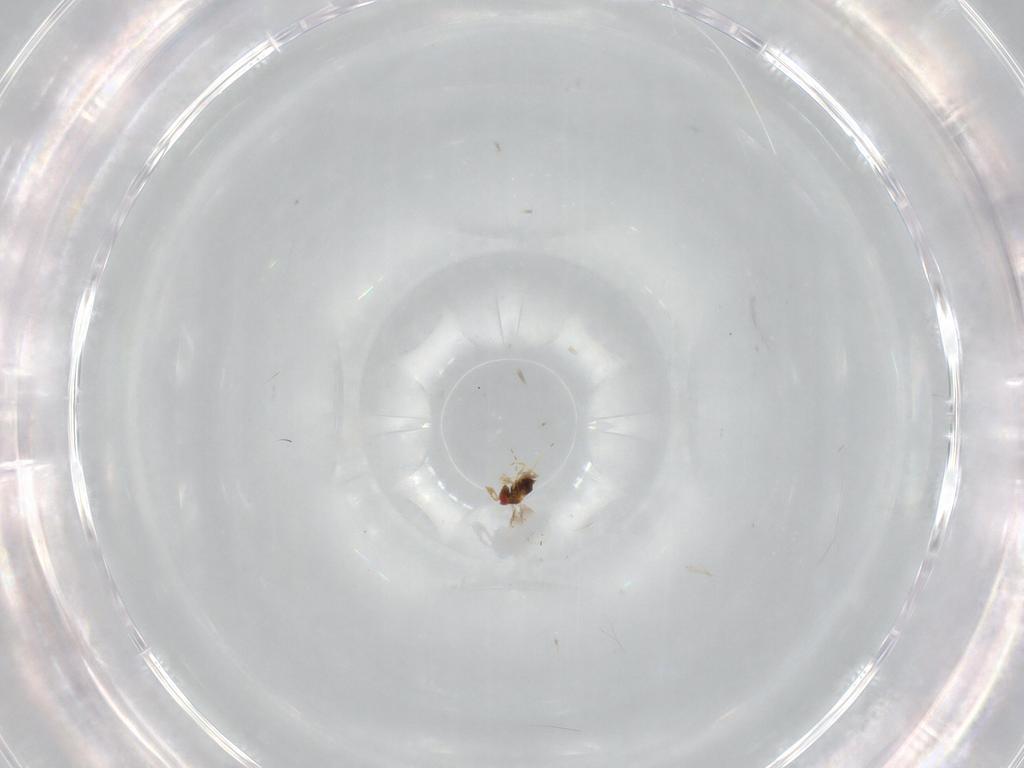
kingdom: Animalia
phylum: Arthropoda
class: Insecta
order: Hymenoptera
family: Trichogrammatidae
